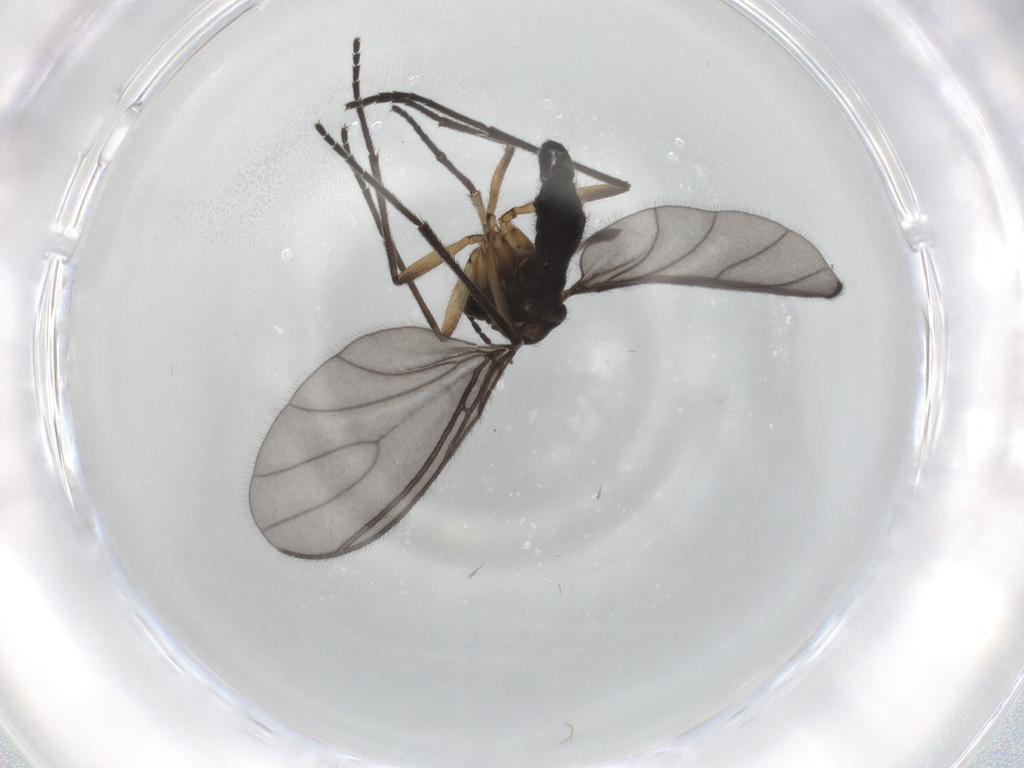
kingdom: Animalia
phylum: Arthropoda
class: Insecta
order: Diptera
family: Sciaridae
